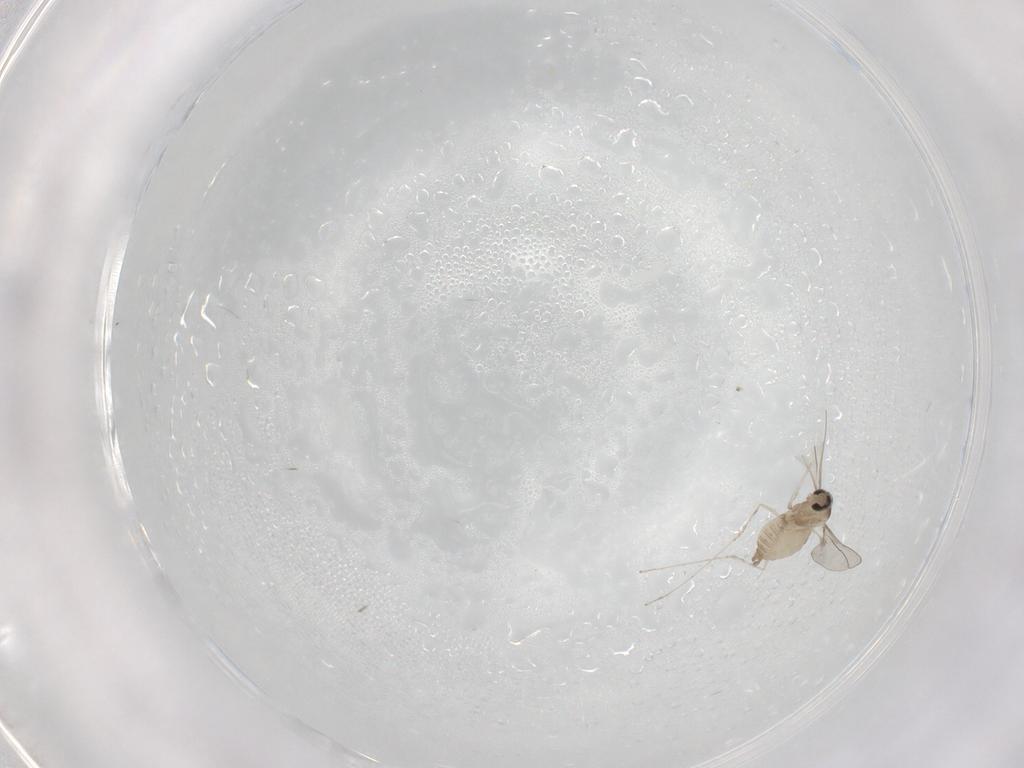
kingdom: Animalia
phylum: Arthropoda
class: Insecta
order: Diptera
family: Cecidomyiidae
